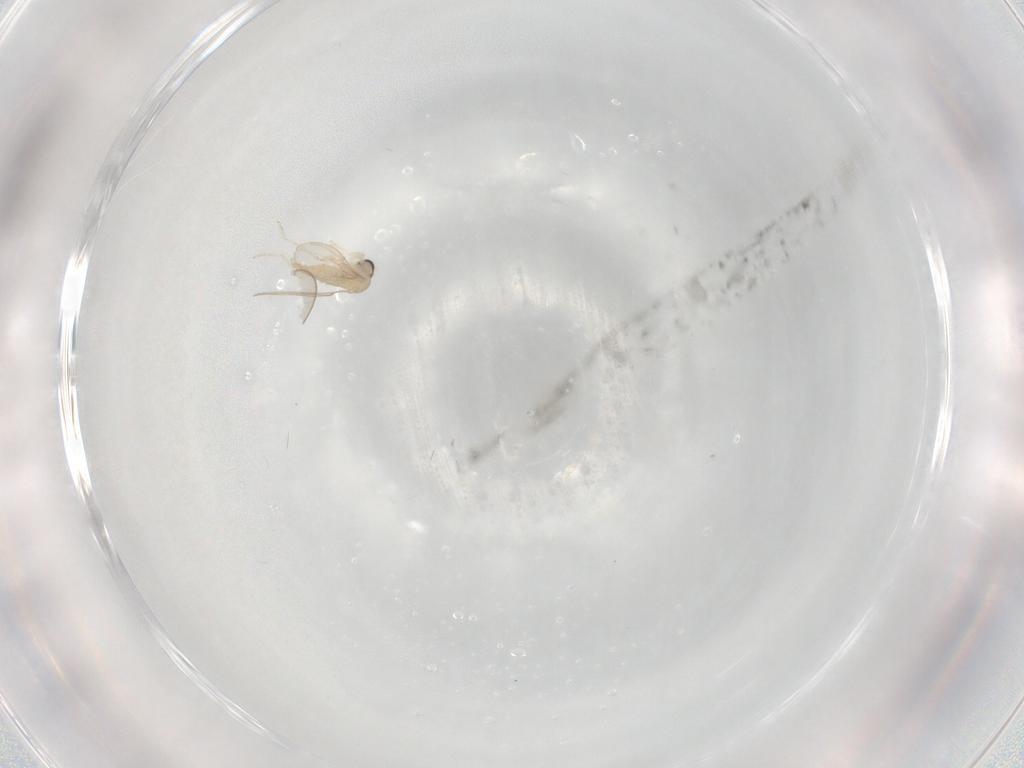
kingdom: Animalia
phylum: Arthropoda
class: Insecta
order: Diptera
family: Cecidomyiidae
